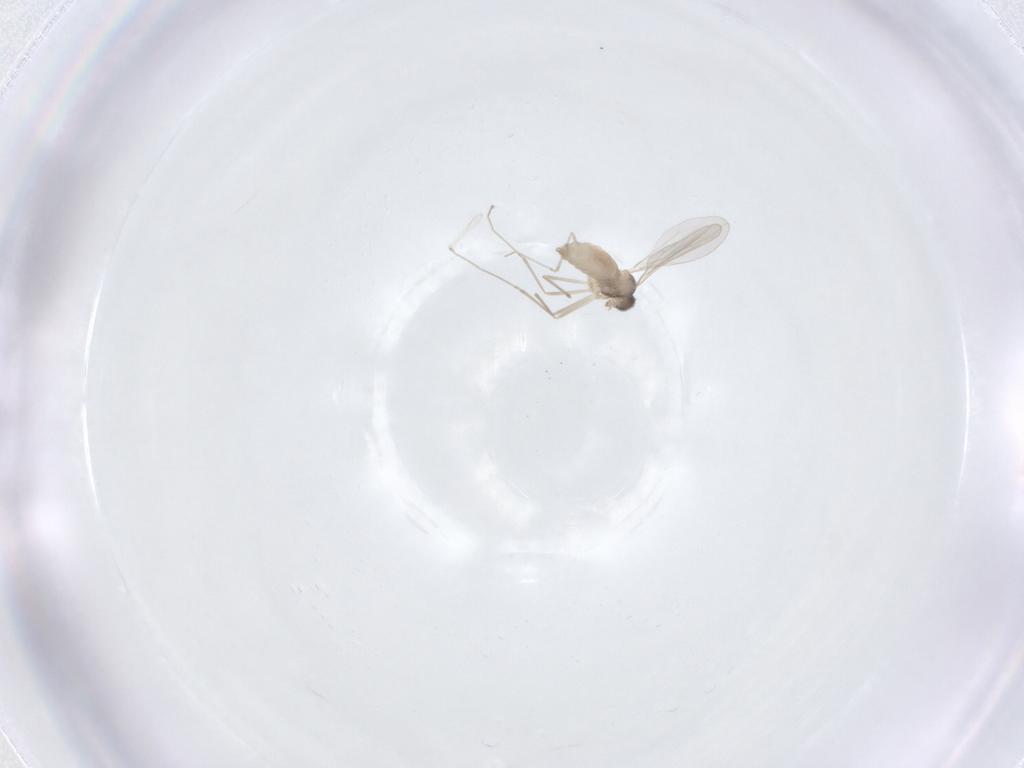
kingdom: Animalia
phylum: Arthropoda
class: Insecta
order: Diptera
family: Cecidomyiidae
